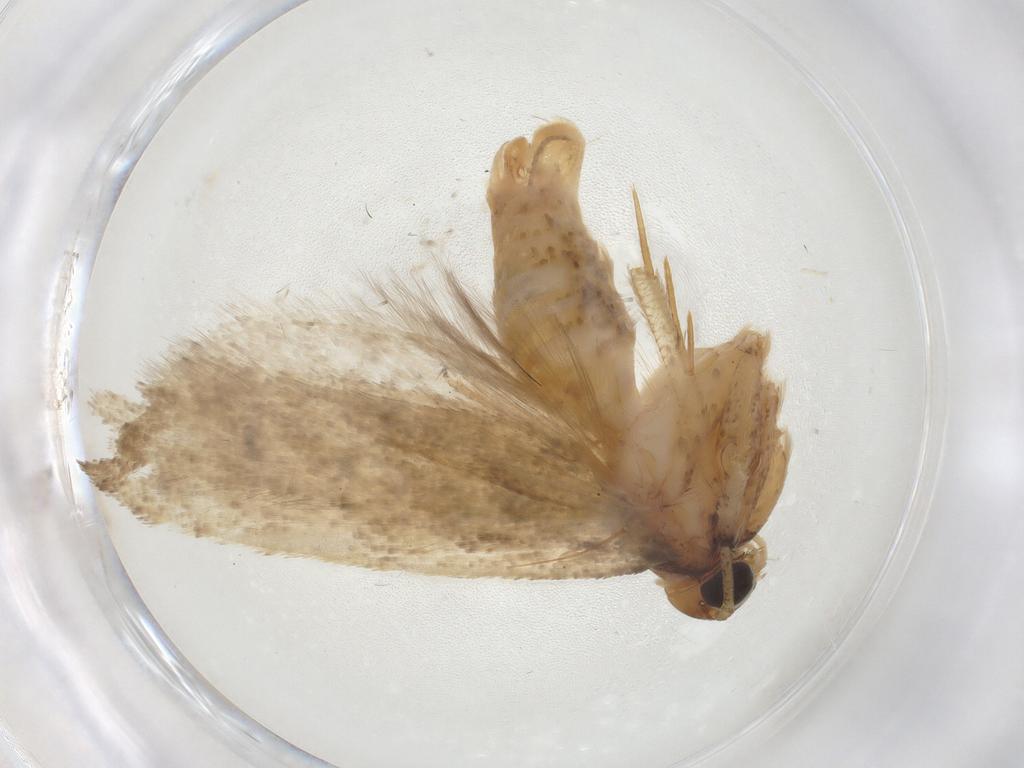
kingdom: Animalia
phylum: Arthropoda
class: Insecta
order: Lepidoptera
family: Gelechiidae
